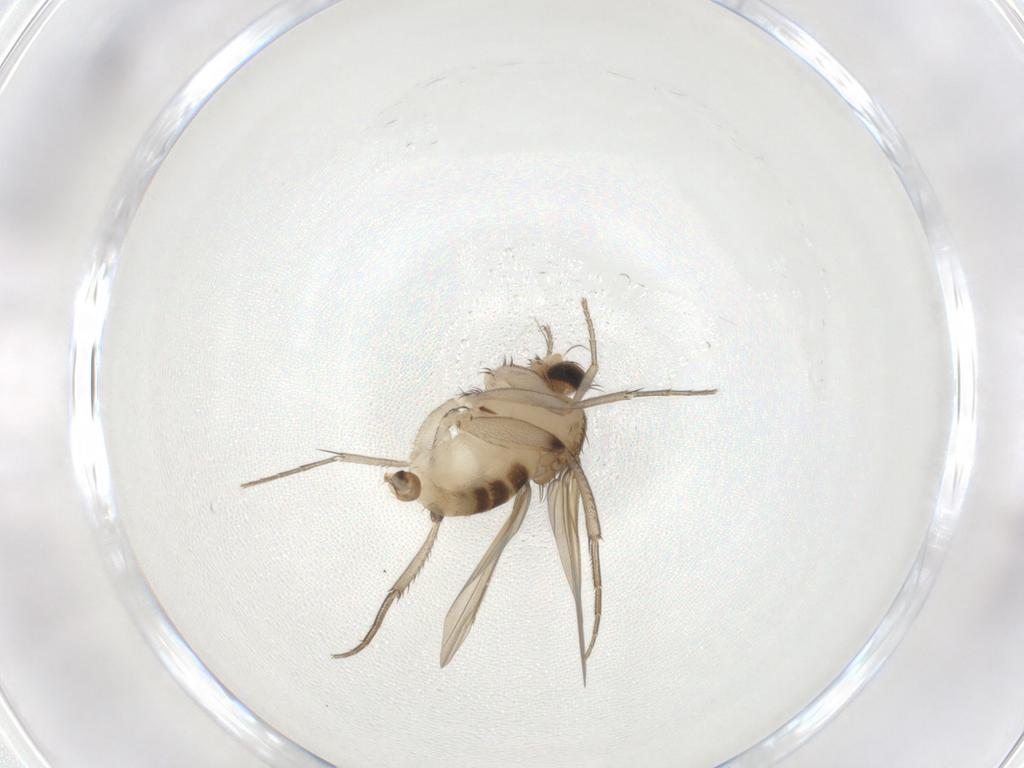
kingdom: Animalia
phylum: Arthropoda
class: Insecta
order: Diptera
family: Phoridae
